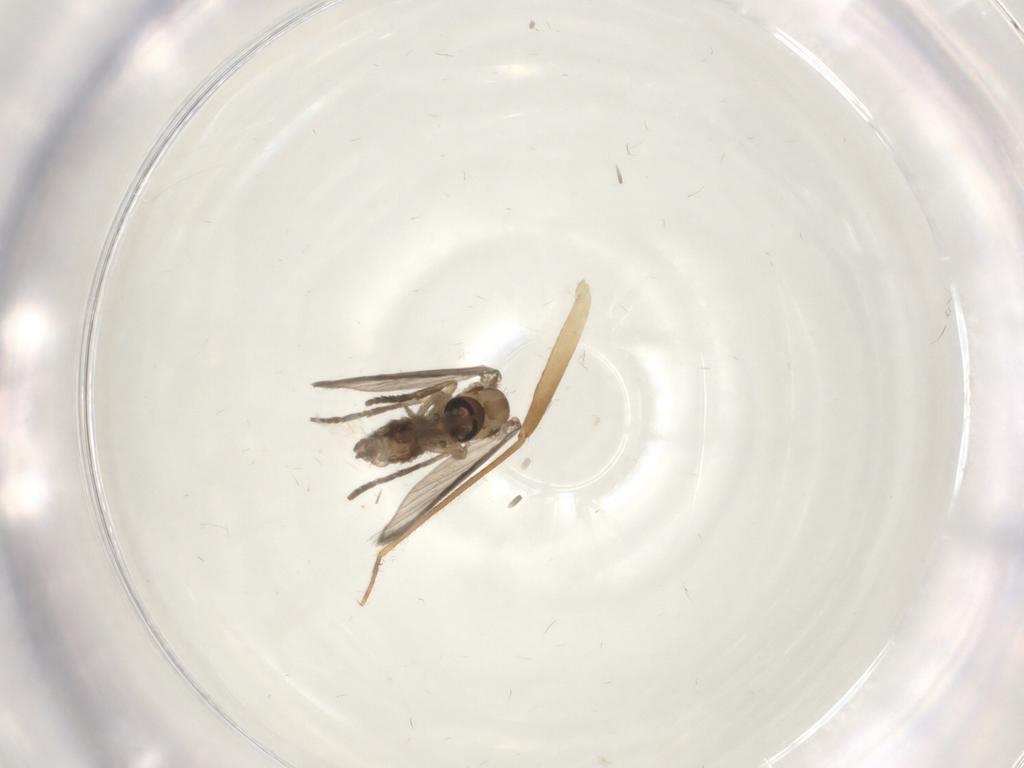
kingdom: Animalia
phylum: Arthropoda
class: Insecta
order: Diptera
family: Psychodidae
